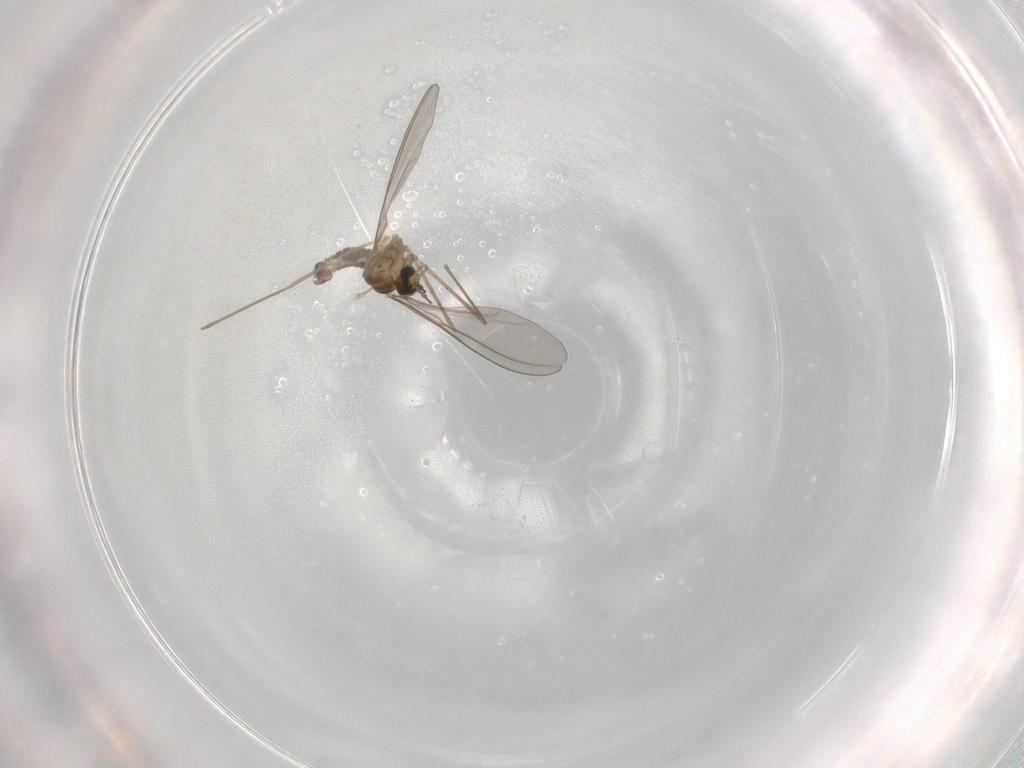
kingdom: Animalia
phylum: Arthropoda
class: Insecta
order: Diptera
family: Cecidomyiidae
